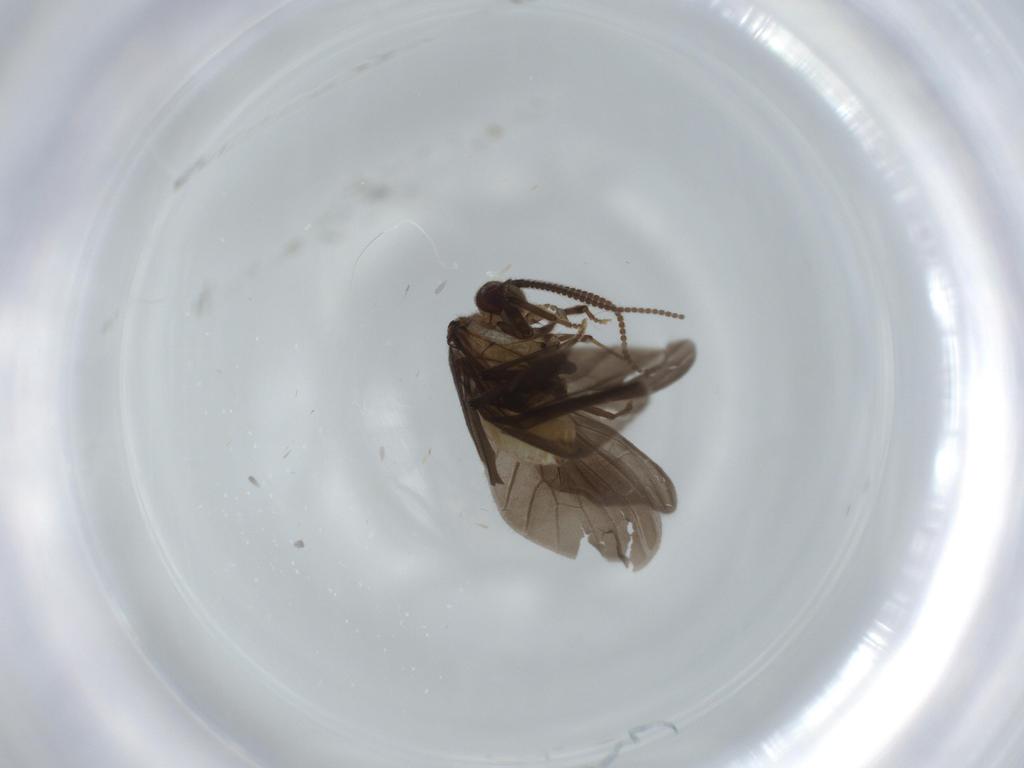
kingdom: Animalia
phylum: Arthropoda
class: Insecta
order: Neuroptera
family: Coniopterygidae
